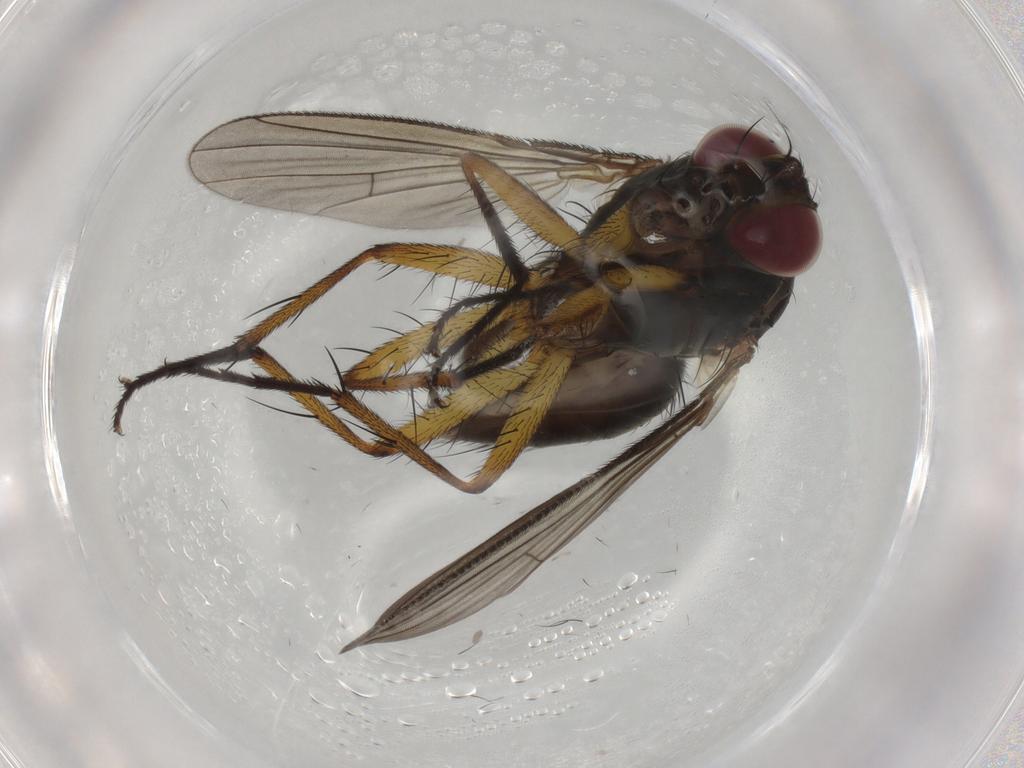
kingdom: Animalia
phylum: Arthropoda
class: Insecta
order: Diptera
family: Muscidae
